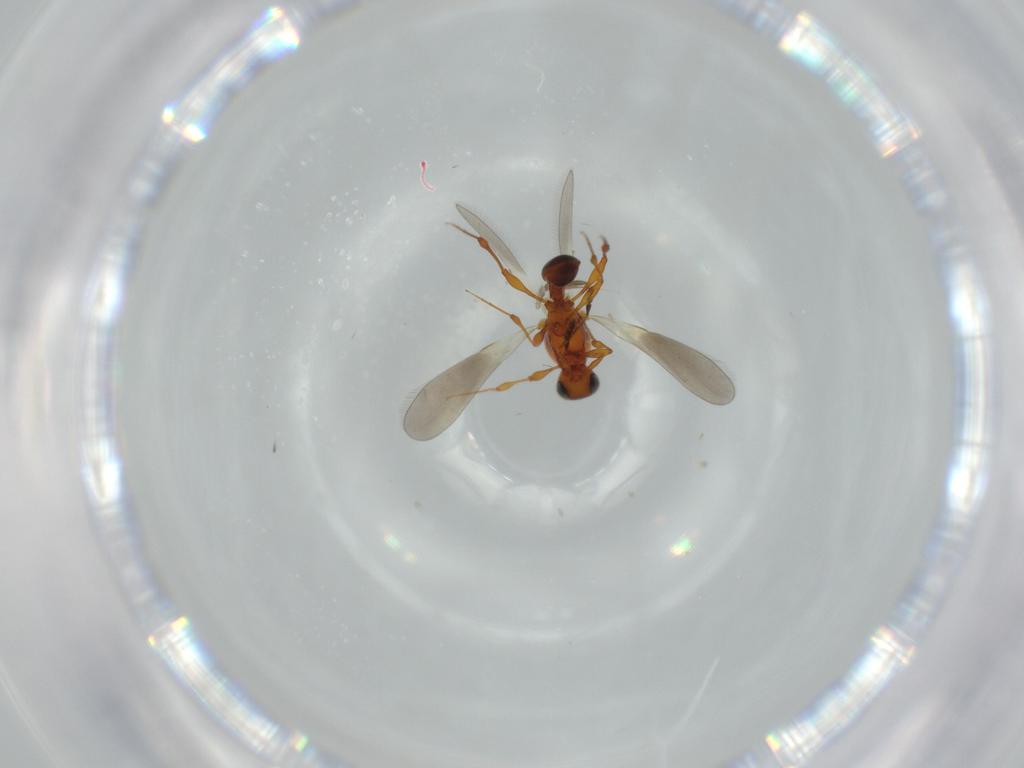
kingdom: Animalia
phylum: Arthropoda
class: Insecta
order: Hymenoptera
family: Platygastridae
